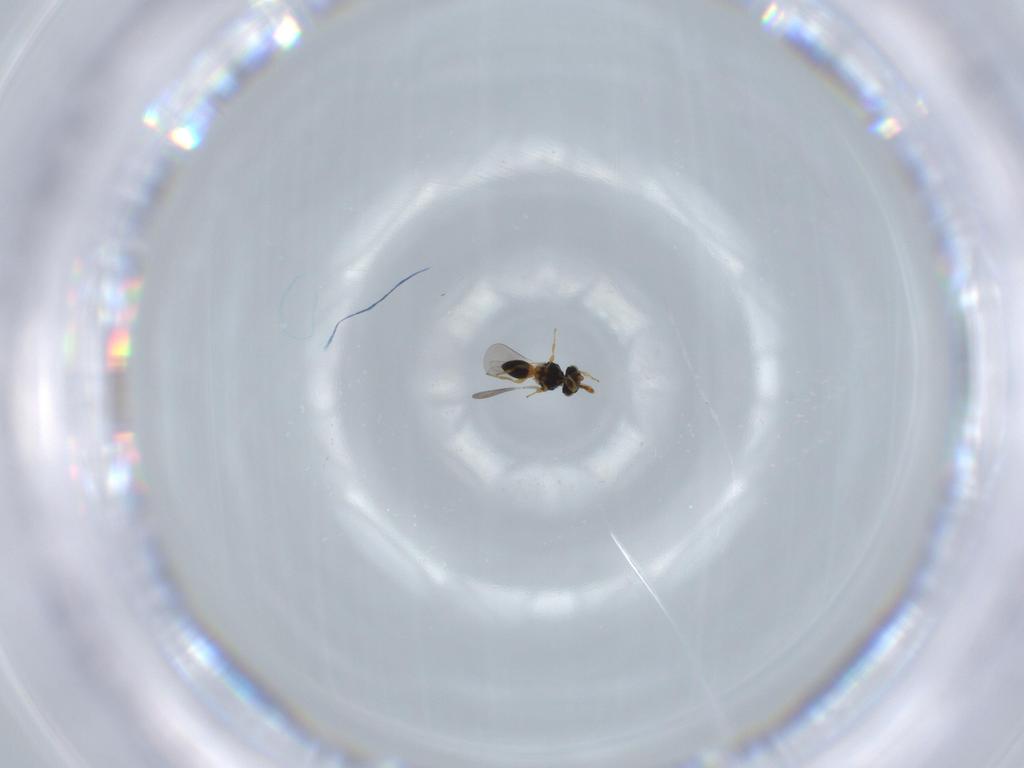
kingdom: Animalia
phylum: Arthropoda
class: Insecta
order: Hymenoptera
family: Platygastridae
